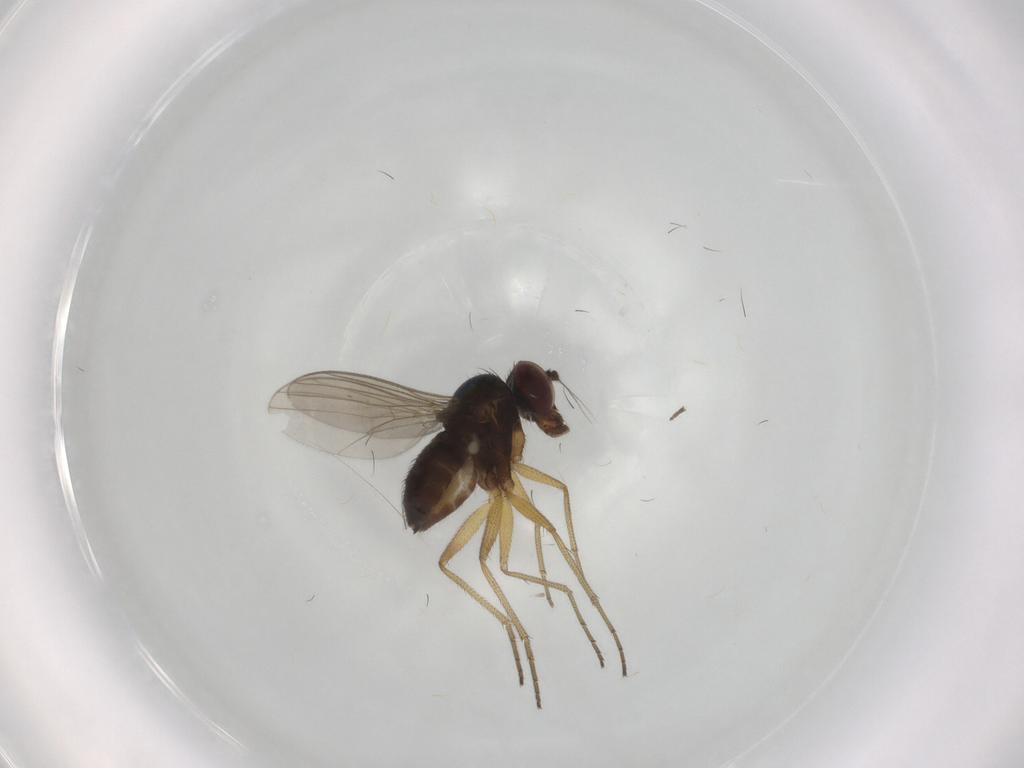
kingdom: Animalia
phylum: Arthropoda
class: Insecta
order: Diptera
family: Dolichopodidae
